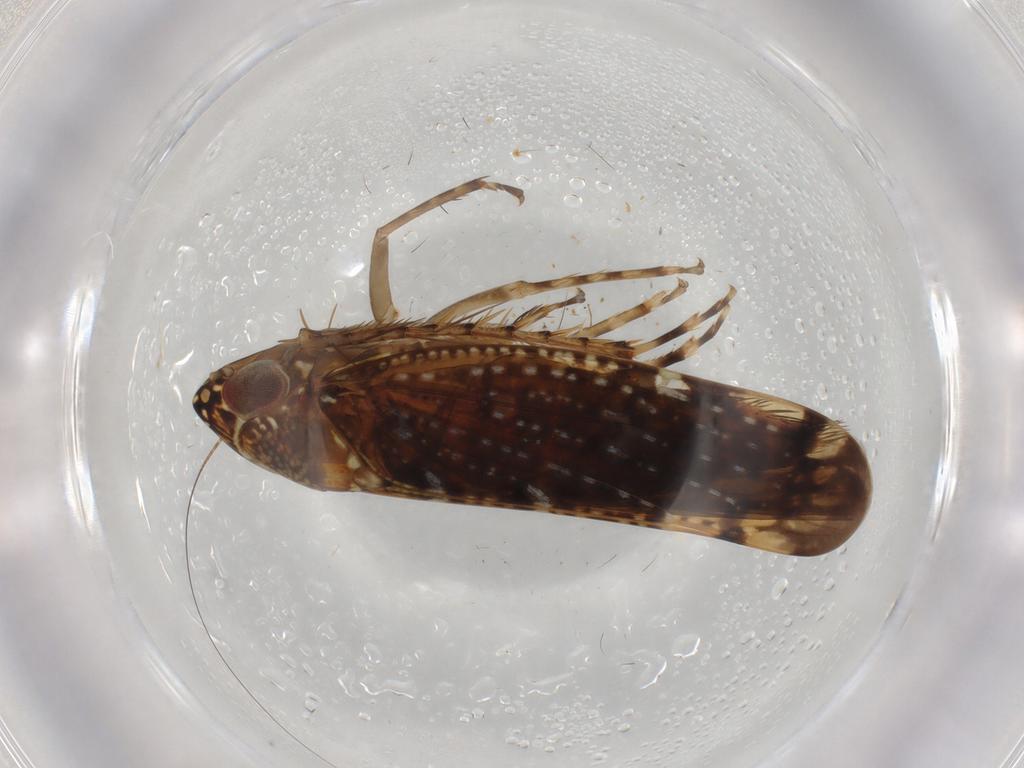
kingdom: Animalia
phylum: Arthropoda
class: Insecta
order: Hemiptera
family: Cicadellidae
